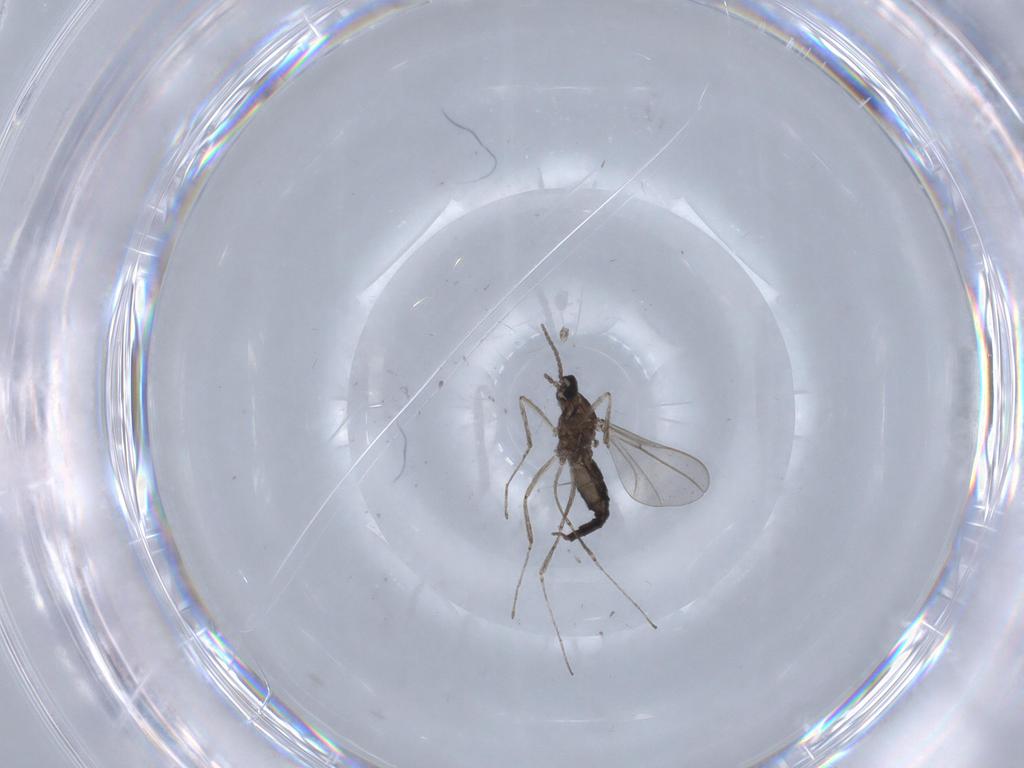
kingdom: Animalia
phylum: Arthropoda
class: Insecta
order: Diptera
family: Cecidomyiidae
